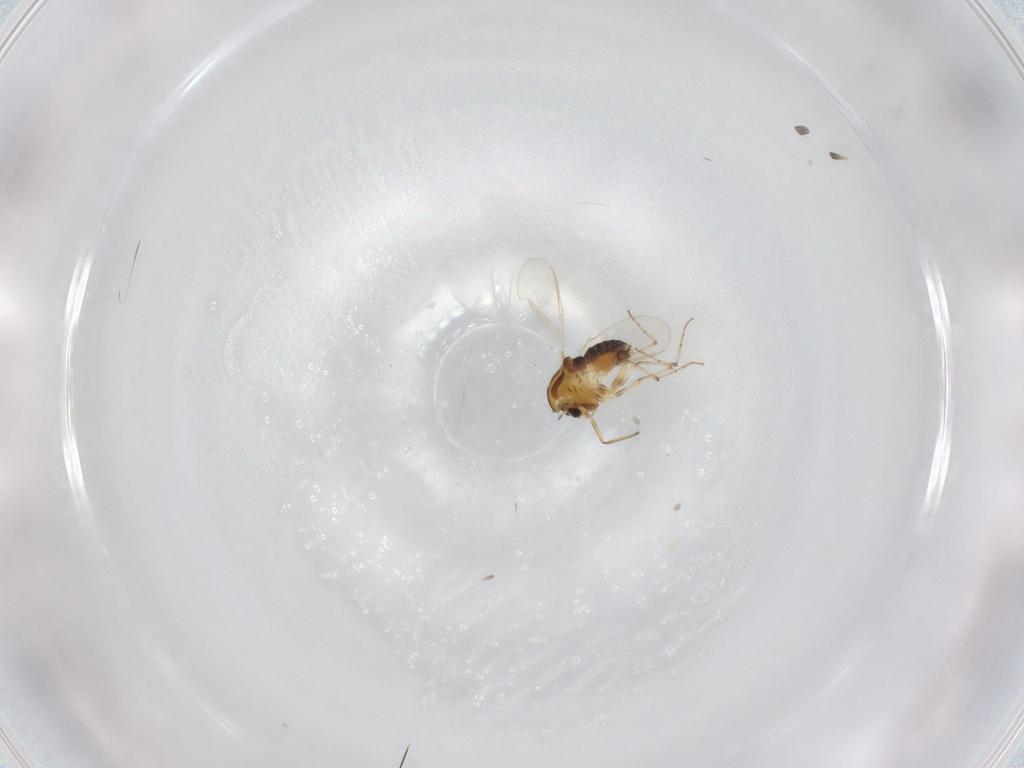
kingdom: Animalia
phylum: Arthropoda
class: Insecta
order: Diptera
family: Chironomidae
